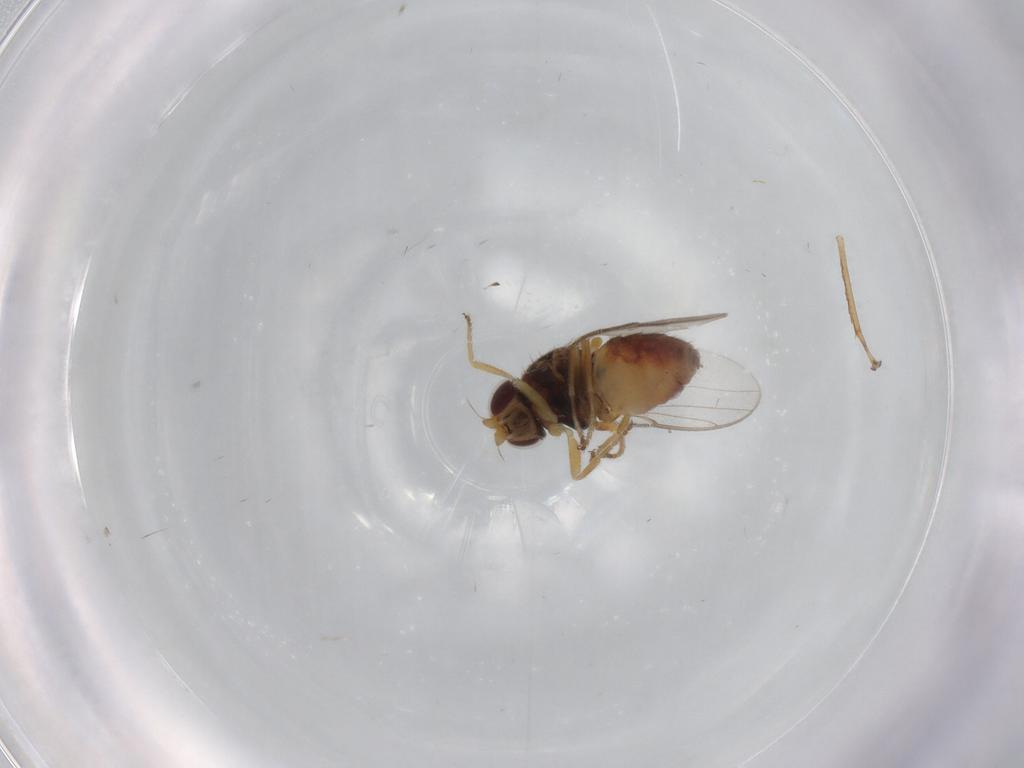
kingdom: Animalia
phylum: Arthropoda
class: Insecta
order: Diptera
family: Chloropidae
